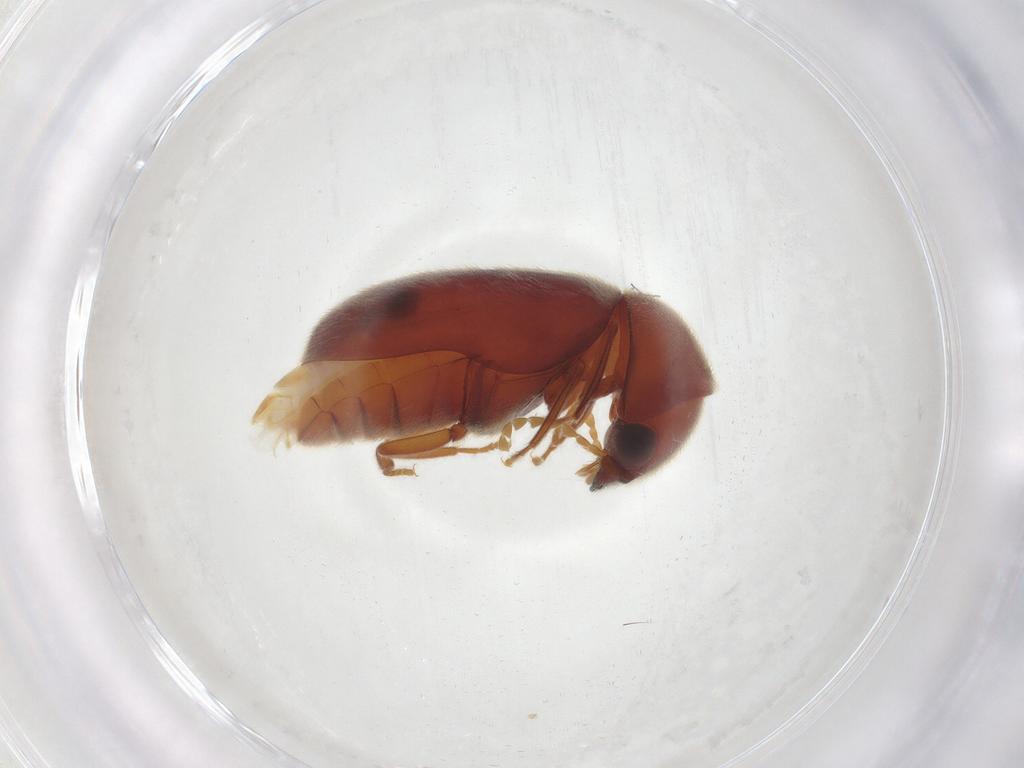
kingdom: Animalia
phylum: Arthropoda
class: Insecta
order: Coleoptera
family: Ptinidae
